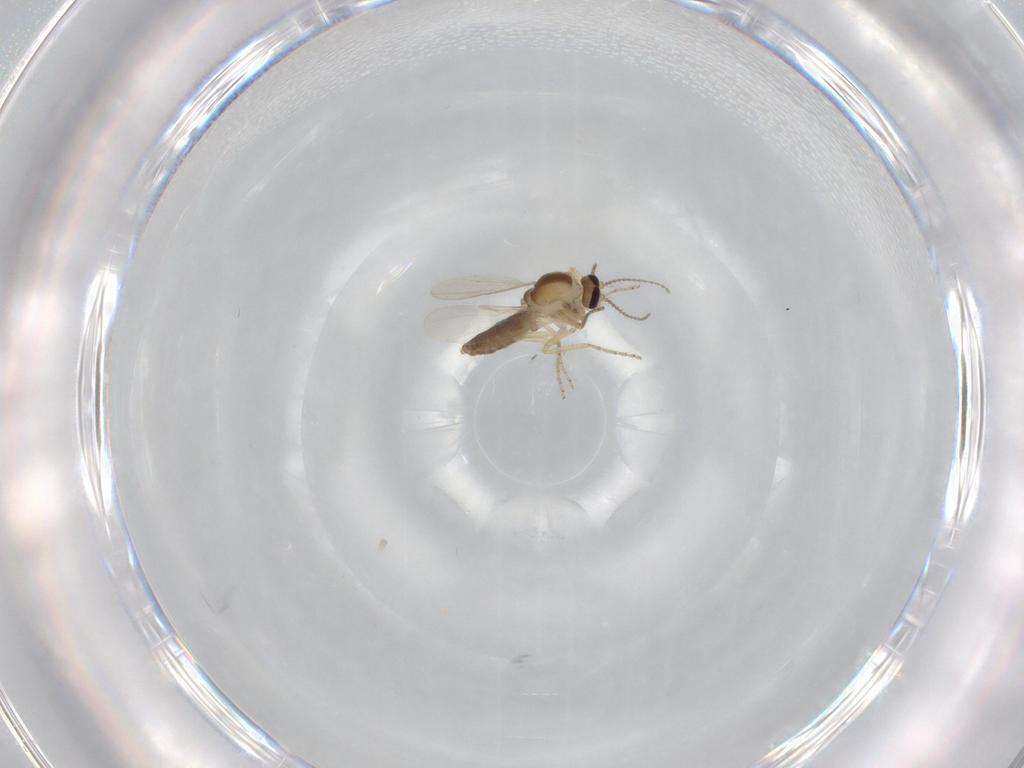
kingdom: Animalia
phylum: Arthropoda
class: Insecta
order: Diptera
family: Ceratopogonidae
